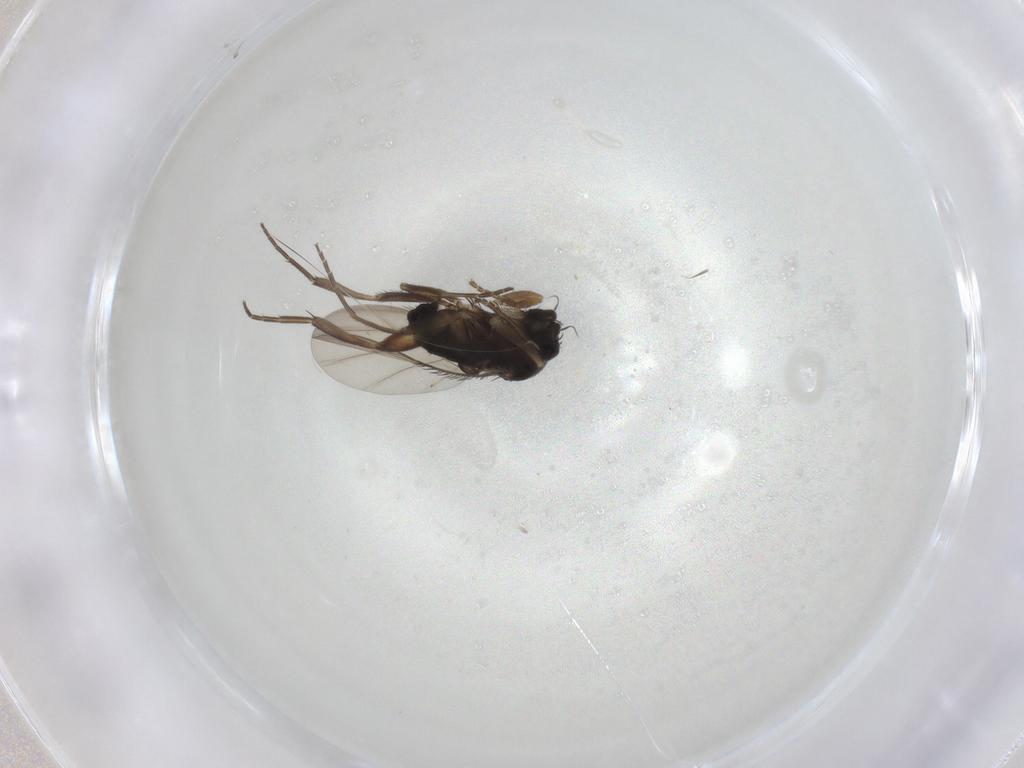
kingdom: Animalia
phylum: Arthropoda
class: Insecta
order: Diptera
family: Phoridae
